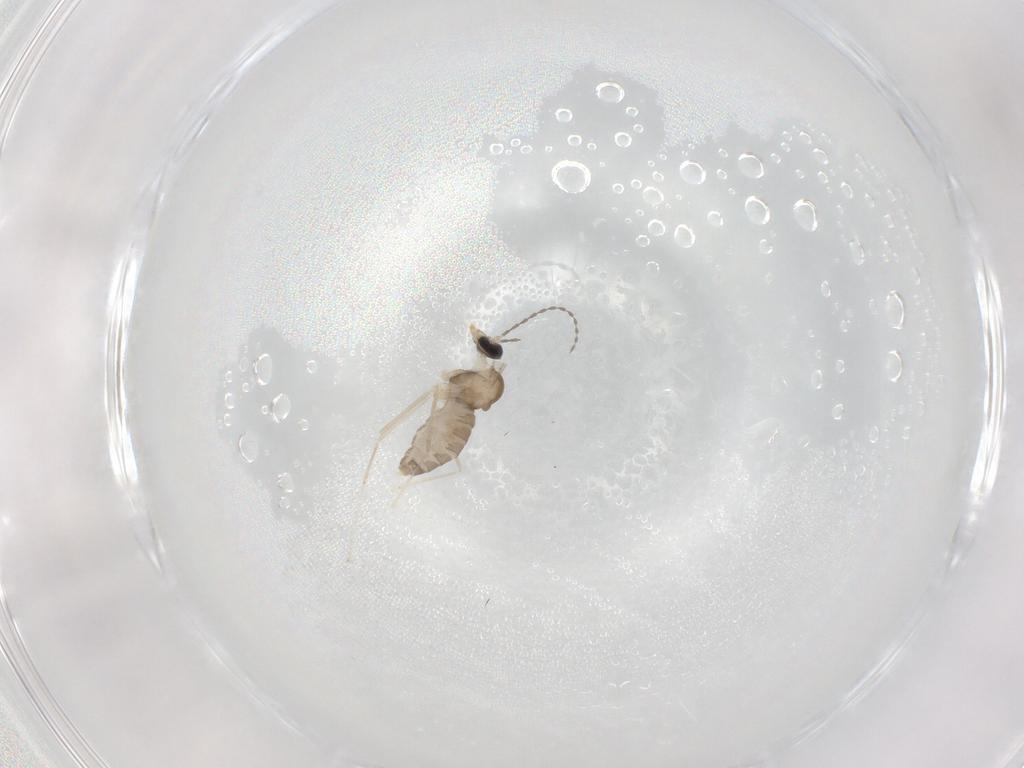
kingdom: Animalia
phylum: Arthropoda
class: Insecta
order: Diptera
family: Cecidomyiidae
